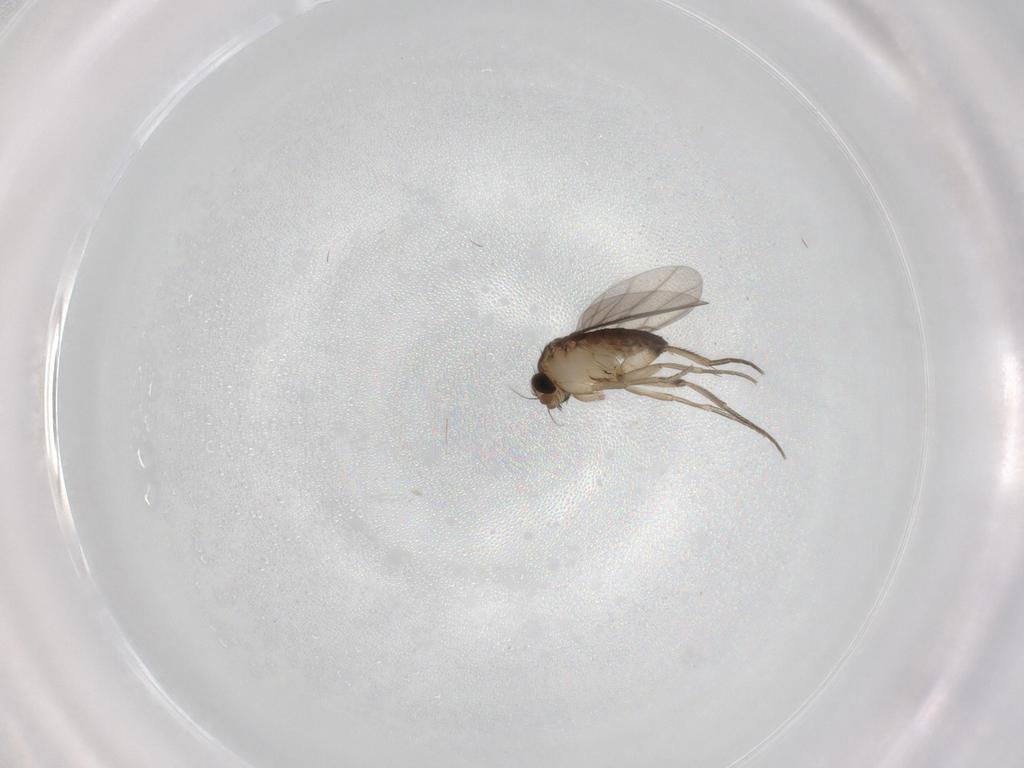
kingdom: Animalia
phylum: Arthropoda
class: Insecta
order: Diptera
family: Phoridae
